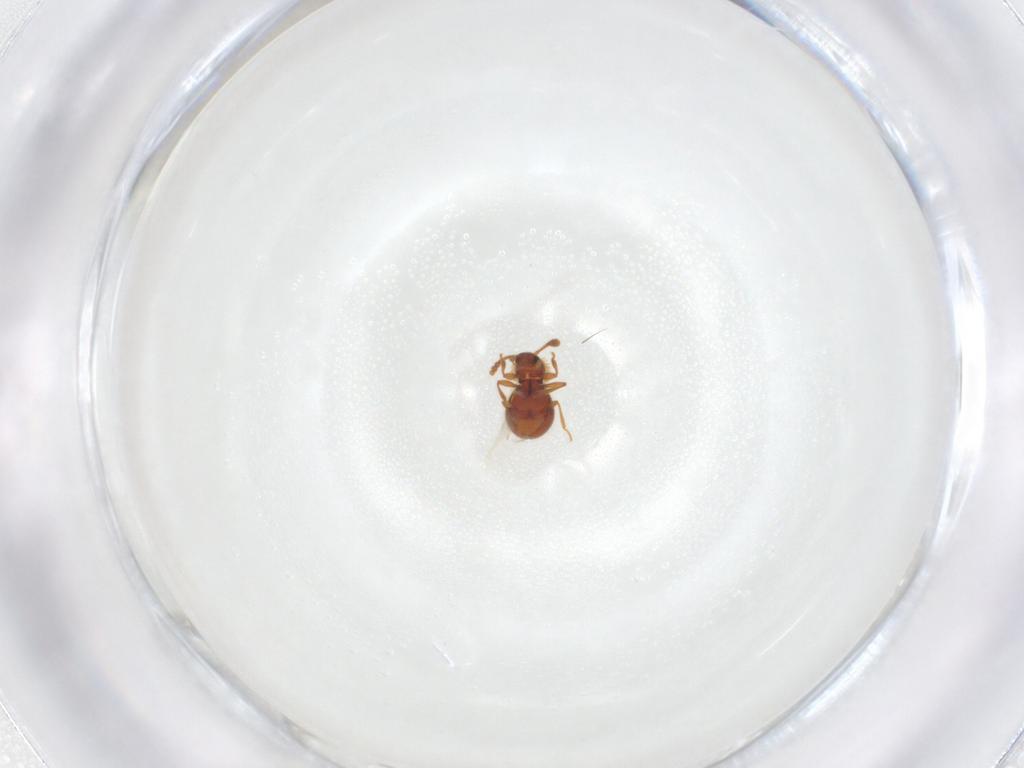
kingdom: Animalia
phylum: Arthropoda
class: Insecta
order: Coleoptera
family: Staphylinidae
